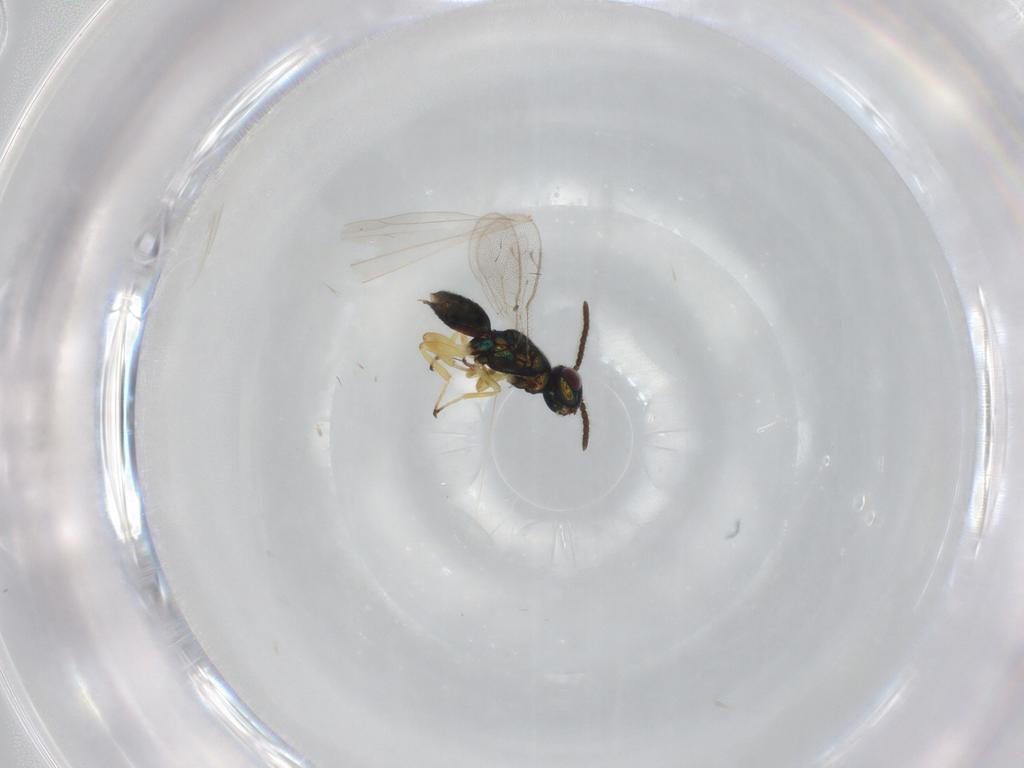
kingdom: Animalia
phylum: Arthropoda
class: Insecta
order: Hymenoptera
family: Eupelmidae
